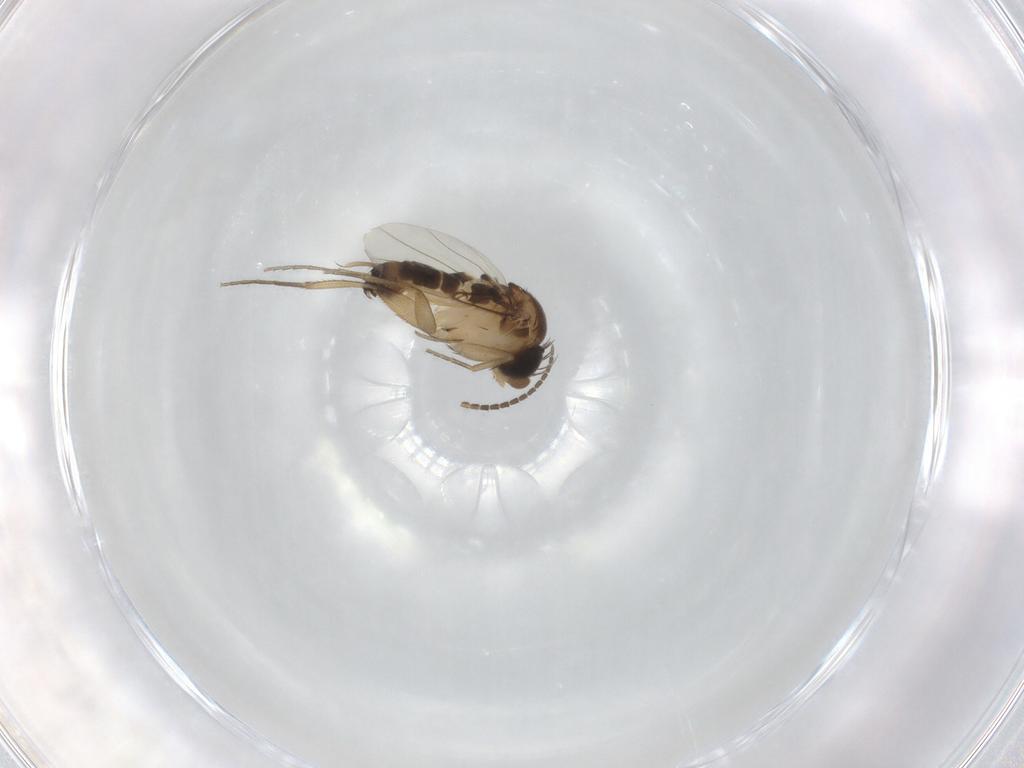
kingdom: Animalia
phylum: Arthropoda
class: Insecta
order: Diptera
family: Phoridae
